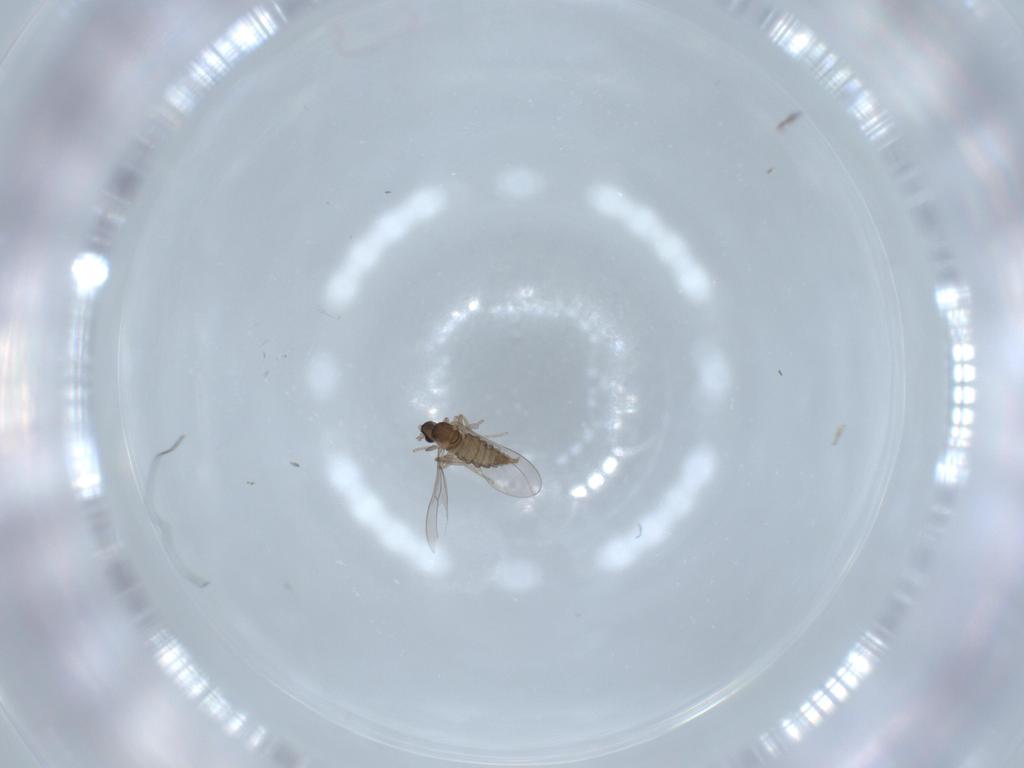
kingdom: Animalia
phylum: Arthropoda
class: Insecta
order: Diptera
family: Cecidomyiidae
